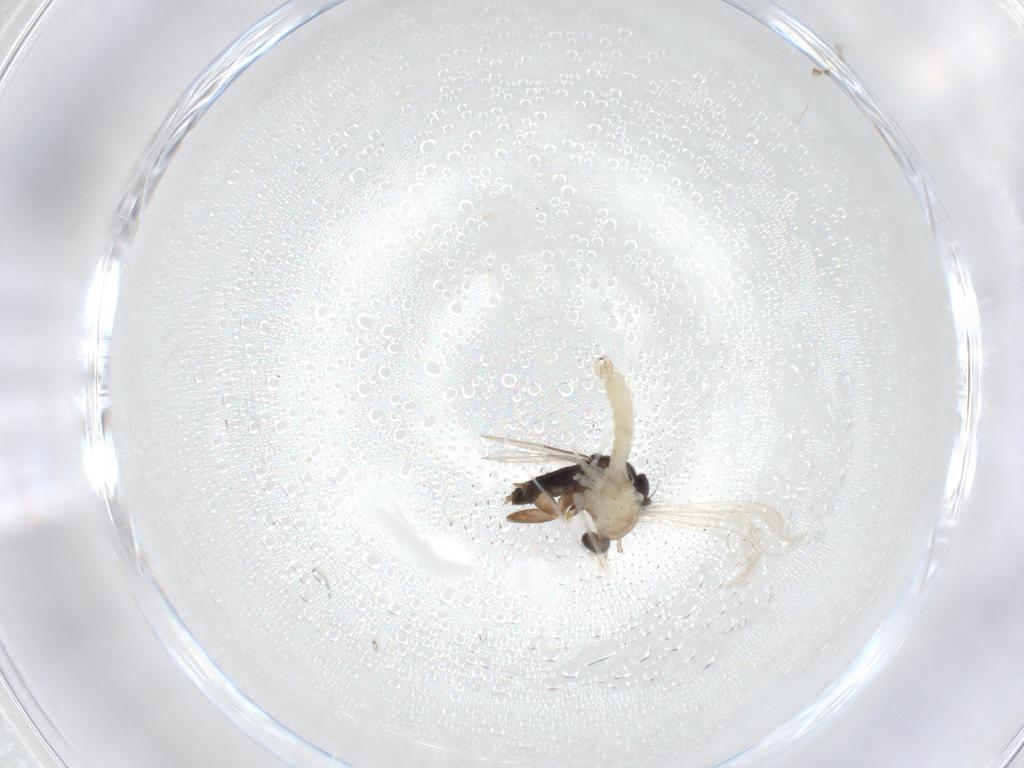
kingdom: Animalia
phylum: Arthropoda
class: Insecta
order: Diptera
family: Cecidomyiidae
